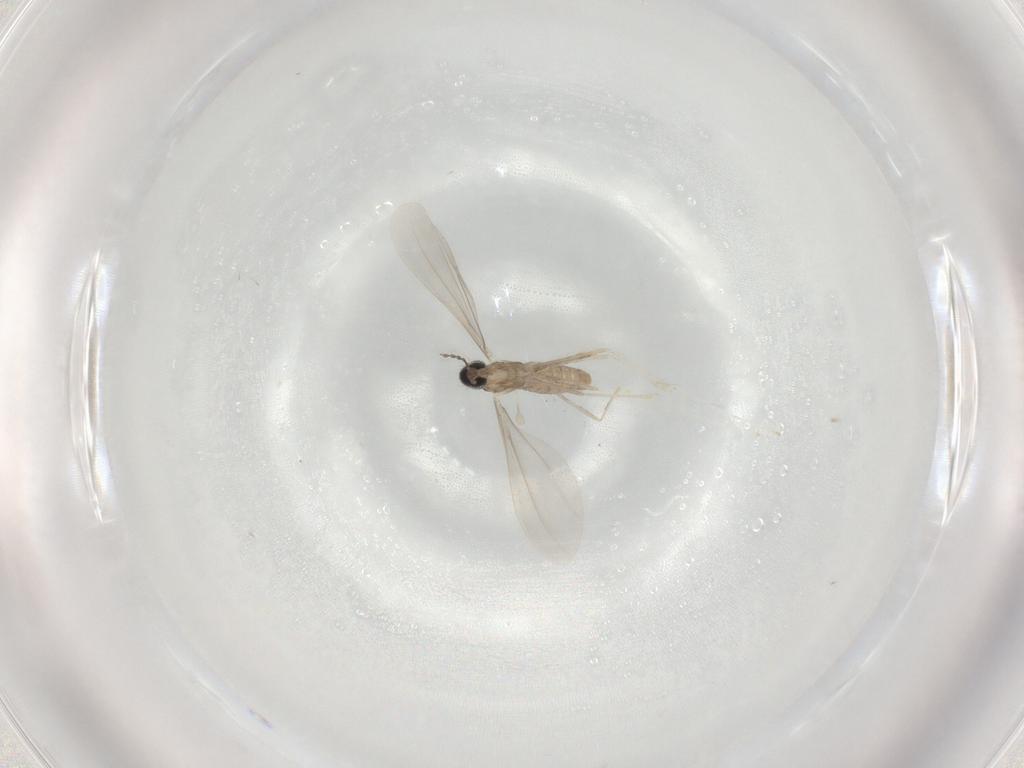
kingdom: Animalia
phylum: Arthropoda
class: Insecta
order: Diptera
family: Cecidomyiidae
